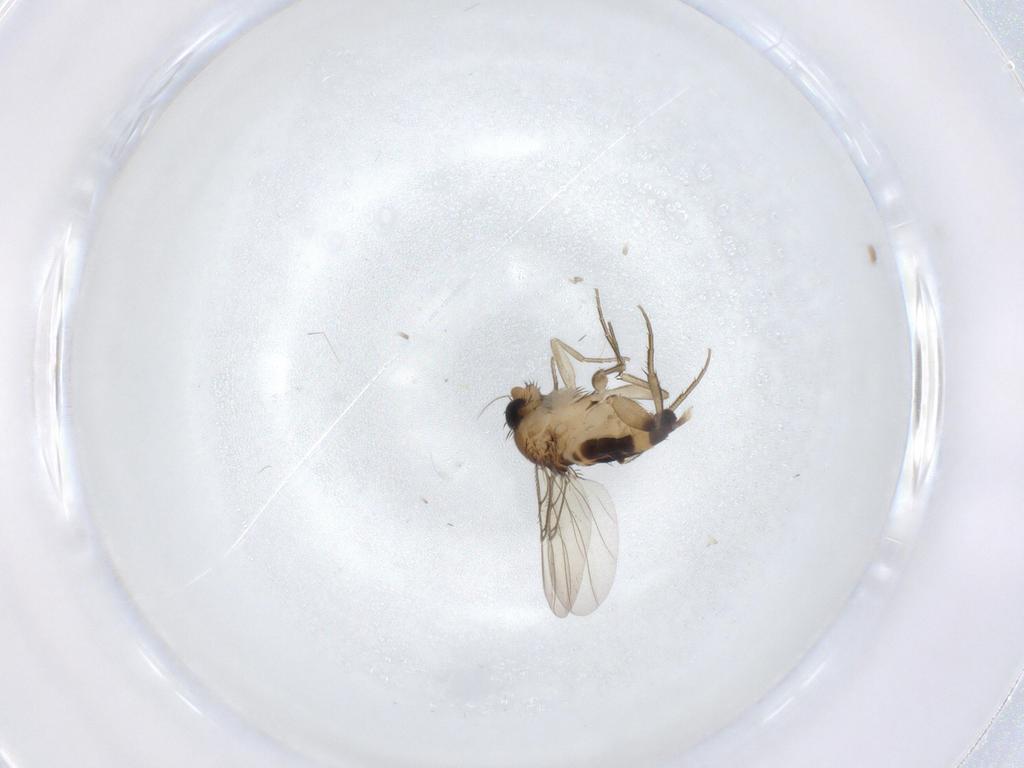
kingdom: Animalia
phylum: Arthropoda
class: Insecta
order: Diptera
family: Phoridae
